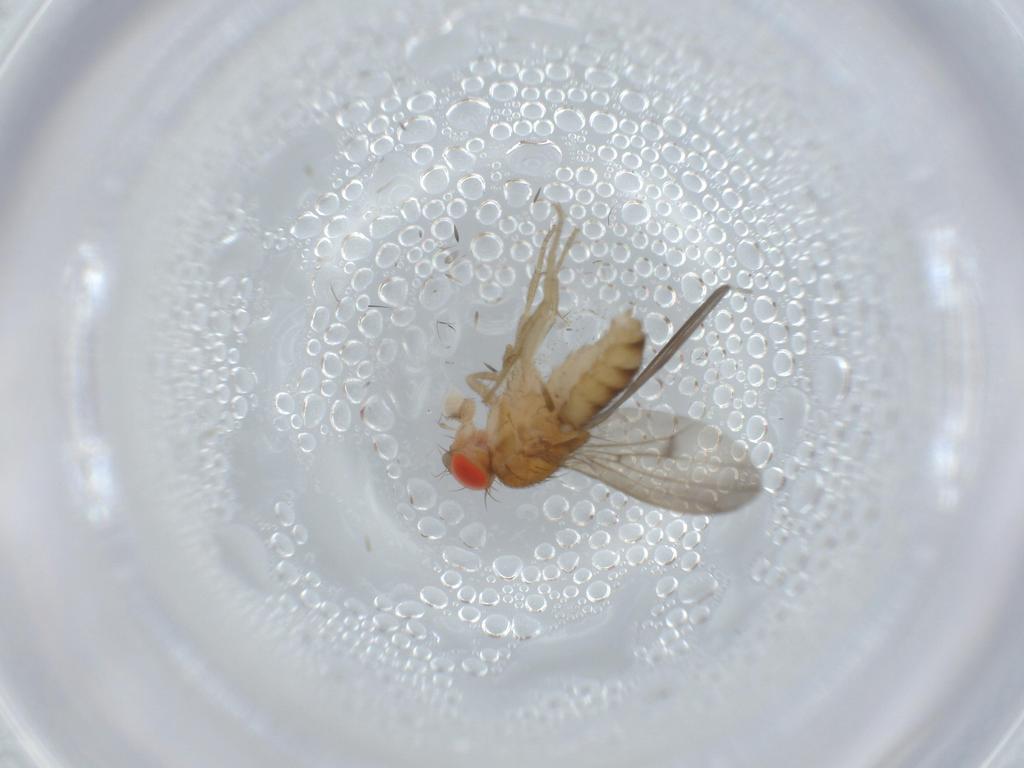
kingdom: Animalia
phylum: Arthropoda
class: Insecta
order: Diptera
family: Drosophilidae
